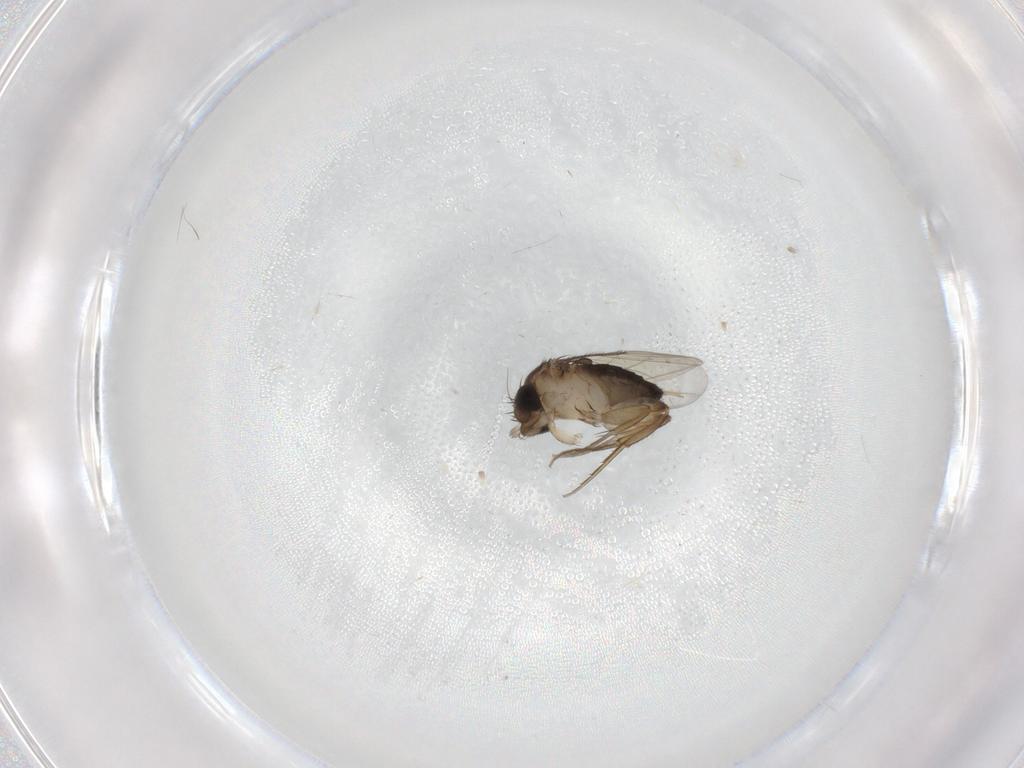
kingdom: Animalia
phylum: Arthropoda
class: Insecta
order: Diptera
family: Phoridae
